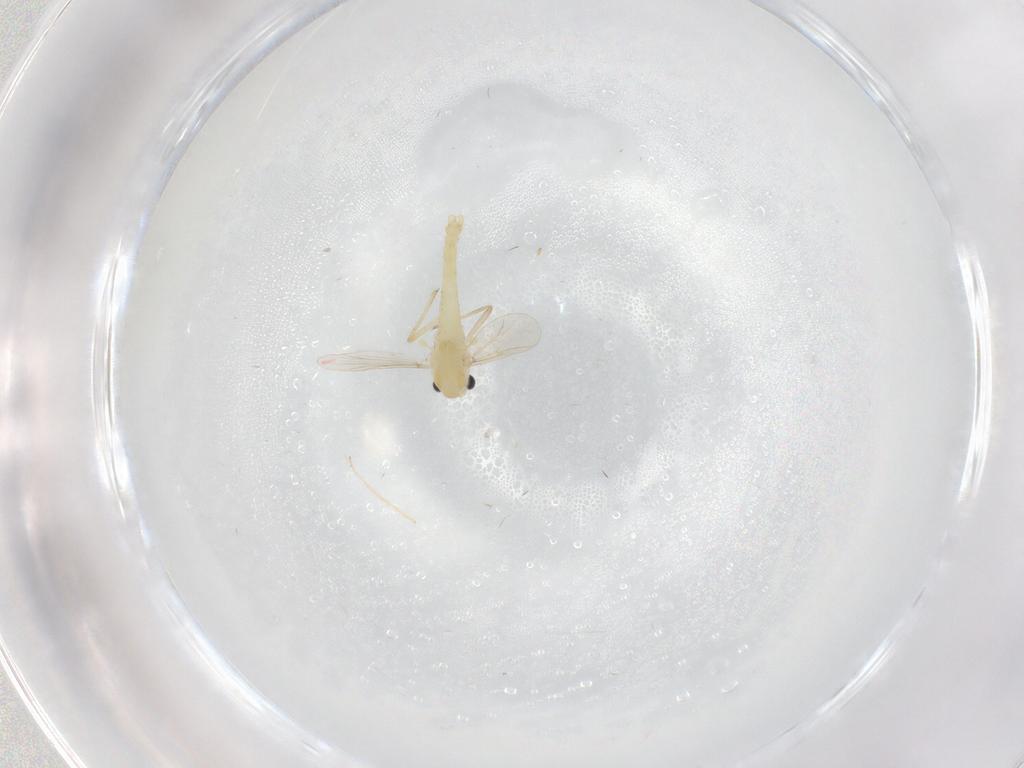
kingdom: Animalia
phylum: Arthropoda
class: Insecta
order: Diptera
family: Chironomidae
